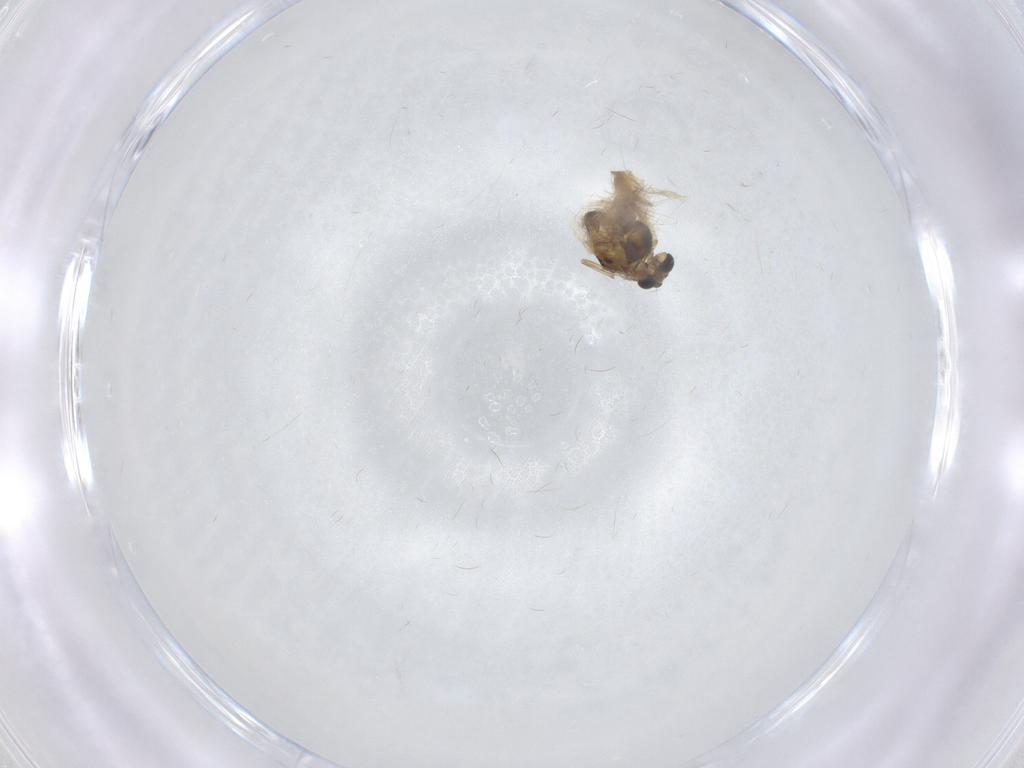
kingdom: Animalia
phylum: Arthropoda
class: Insecta
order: Diptera
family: Chironomidae
